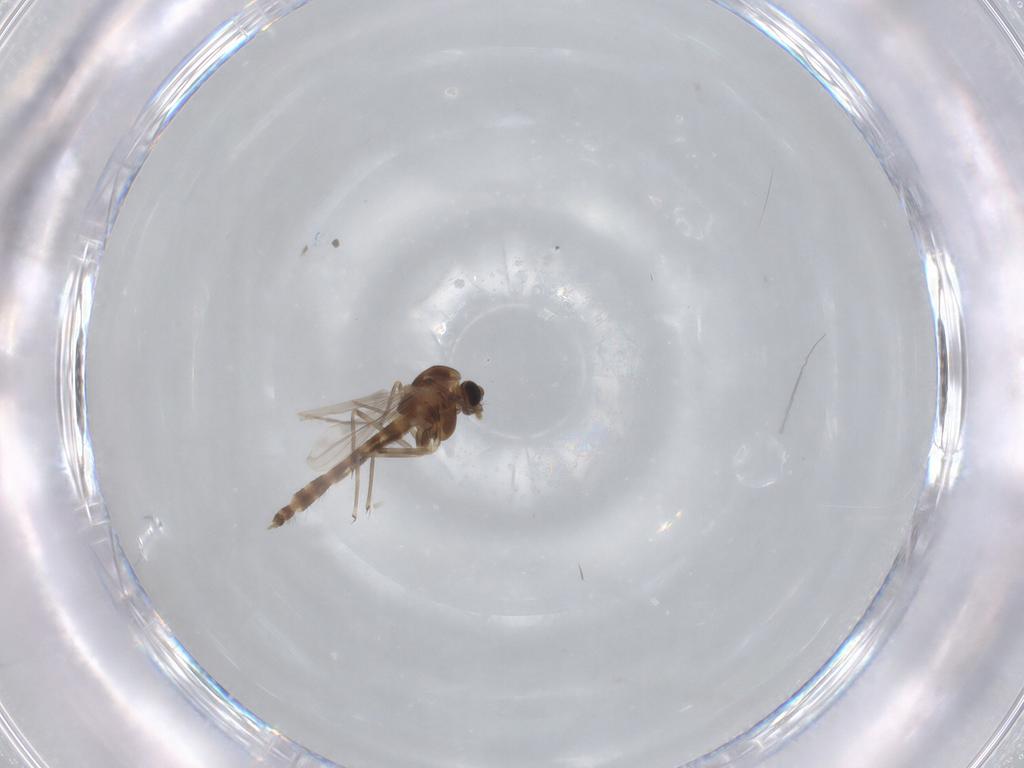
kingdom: Animalia
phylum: Arthropoda
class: Insecta
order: Diptera
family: Chironomidae
